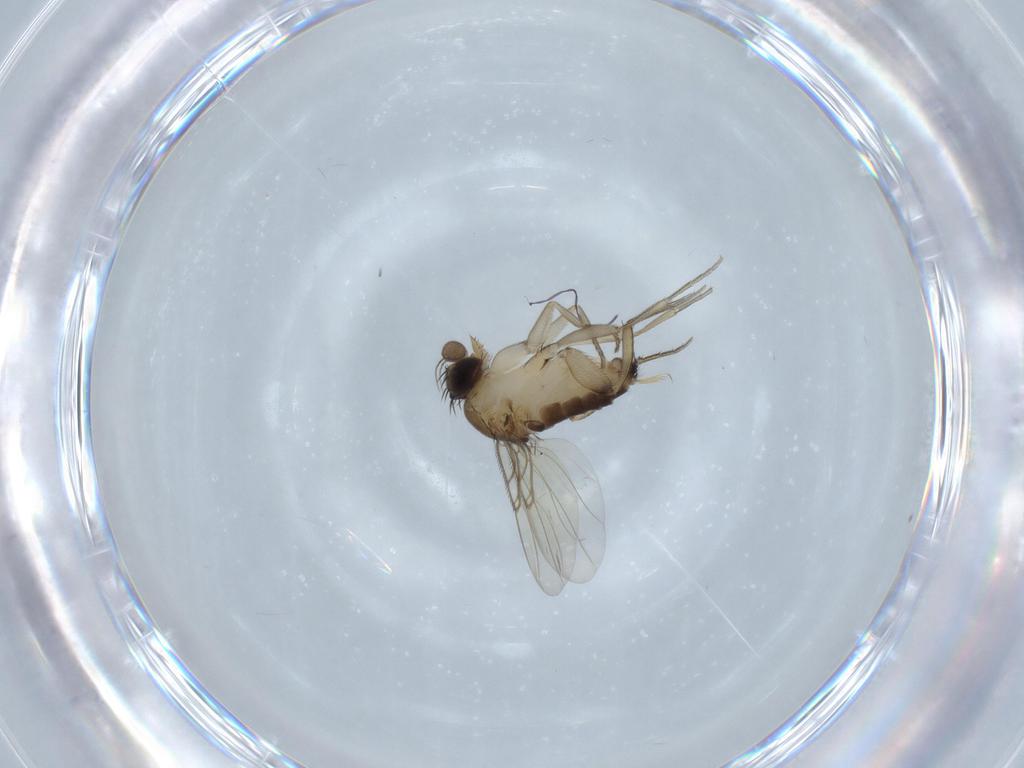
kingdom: Animalia
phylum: Arthropoda
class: Insecta
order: Diptera
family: Phoridae
